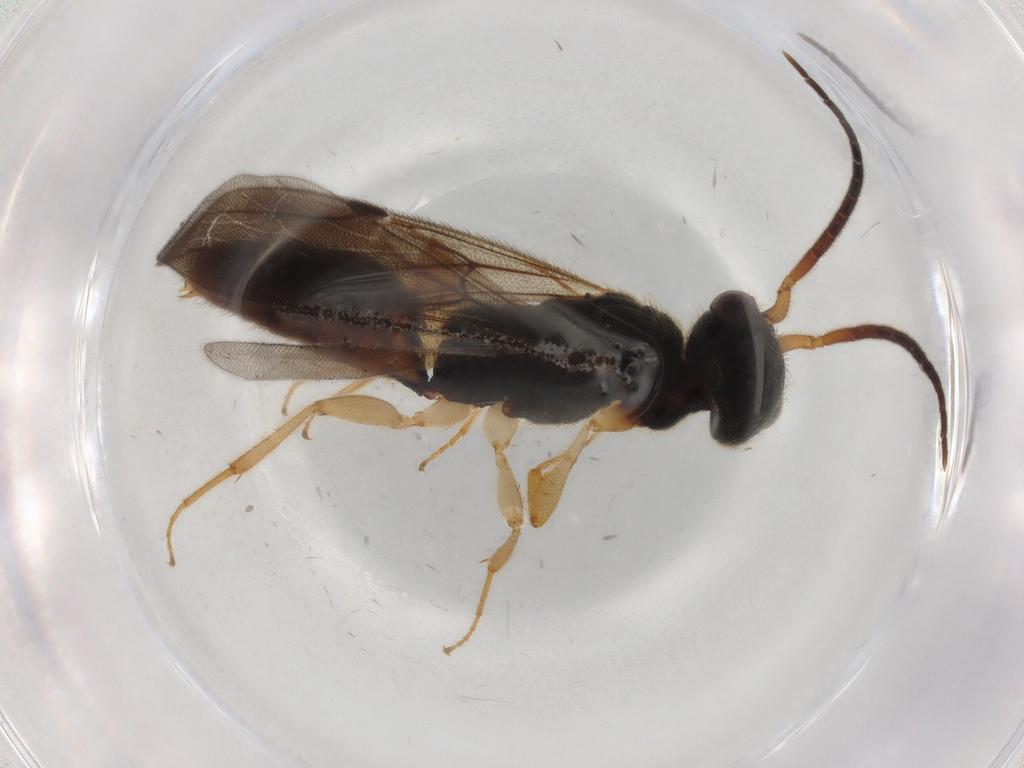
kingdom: Animalia
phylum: Arthropoda
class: Insecta
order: Hymenoptera
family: Bethylidae
